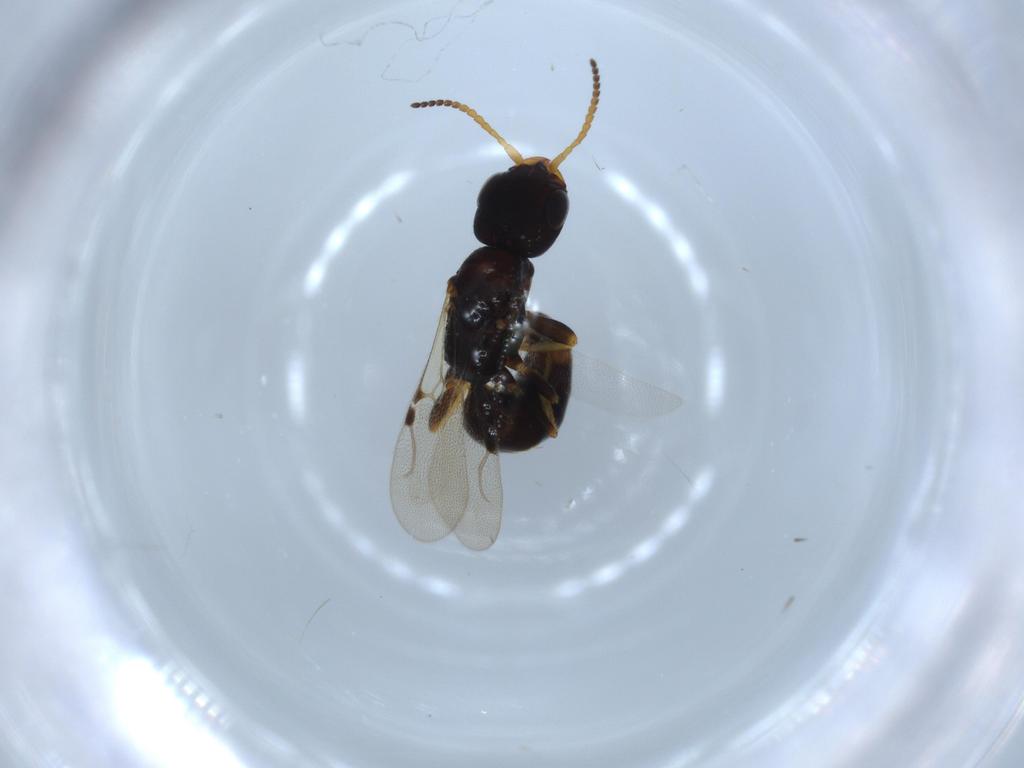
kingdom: Animalia
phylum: Arthropoda
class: Insecta
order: Hymenoptera
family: Bethylidae
